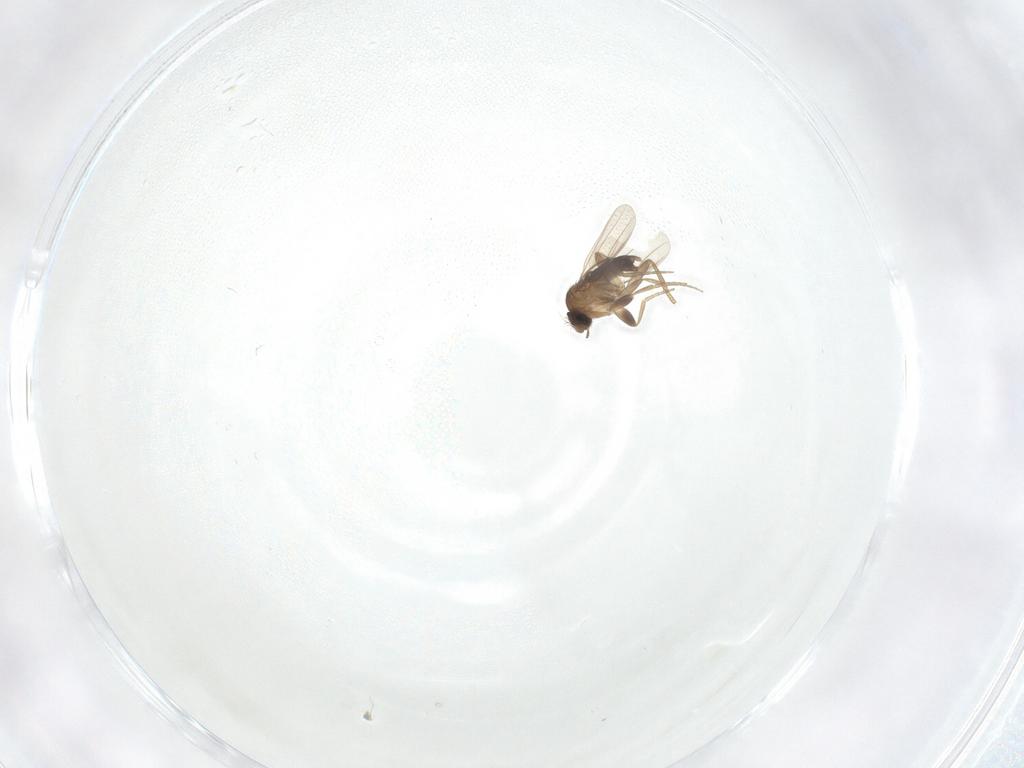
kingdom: Animalia
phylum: Arthropoda
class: Insecta
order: Diptera
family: Phoridae
